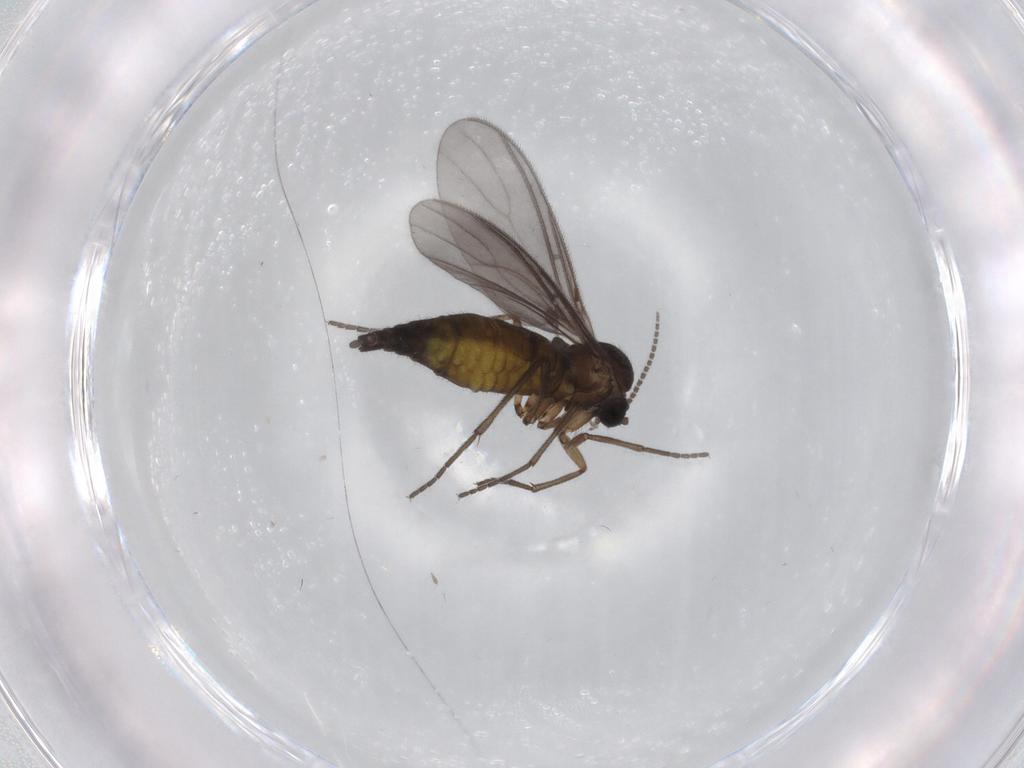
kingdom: Animalia
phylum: Arthropoda
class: Insecta
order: Diptera
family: Sciaridae
